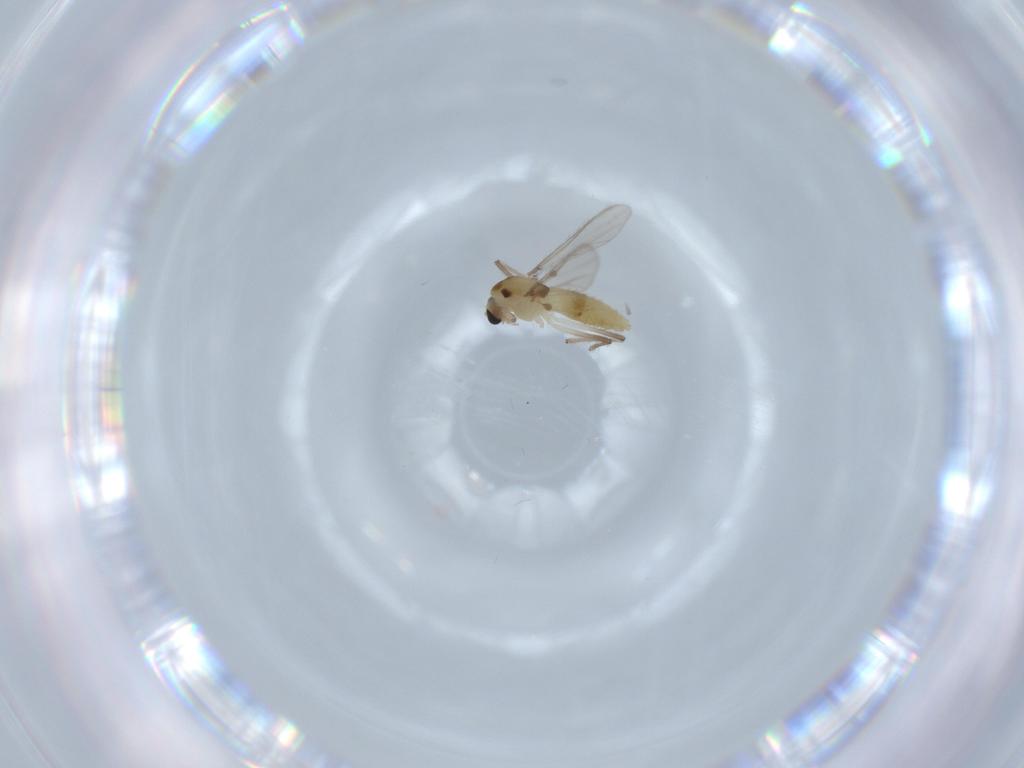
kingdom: Animalia
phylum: Arthropoda
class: Insecta
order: Diptera
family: Chironomidae
